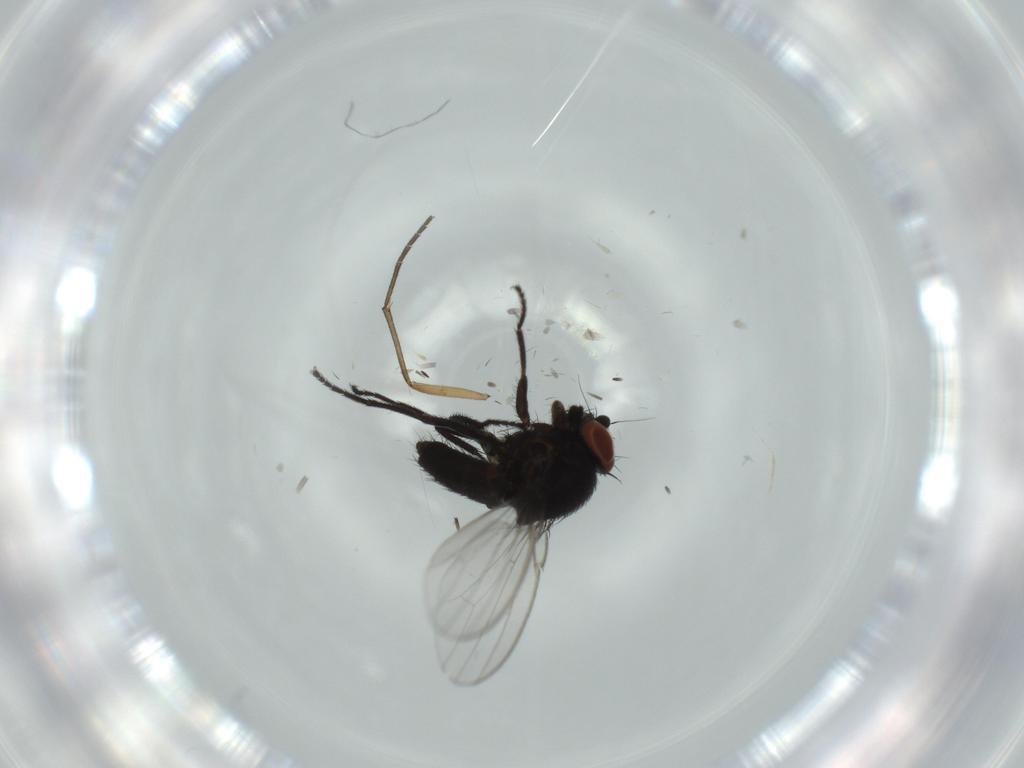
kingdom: Animalia
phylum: Arthropoda
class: Insecta
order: Diptera
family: Sciaridae
